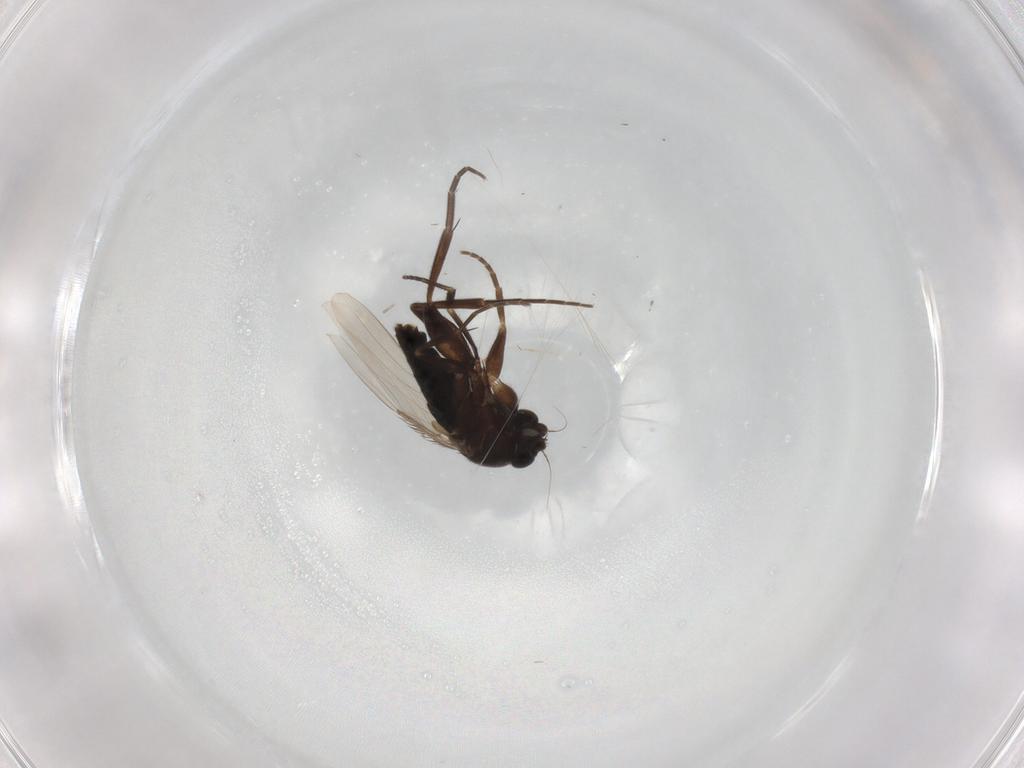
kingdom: Animalia
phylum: Arthropoda
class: Insecta
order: Diptera
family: Phoridae
